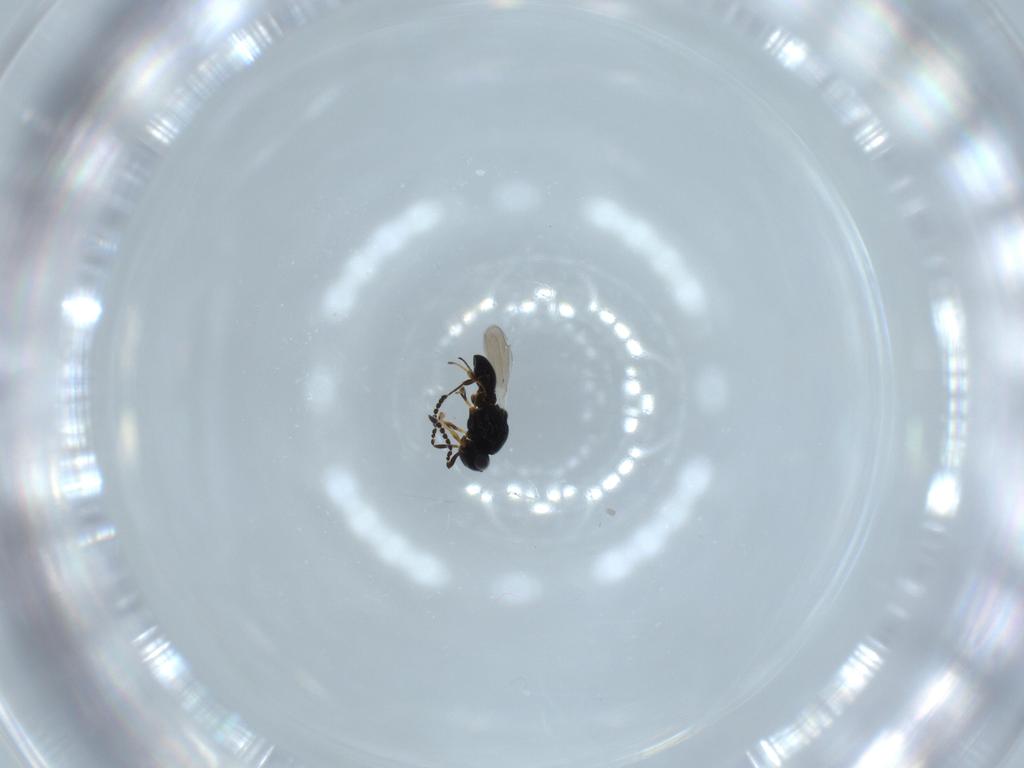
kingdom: Animalia
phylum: Arthropoda
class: Insecta
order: Hymenoptera
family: Platygastridae
